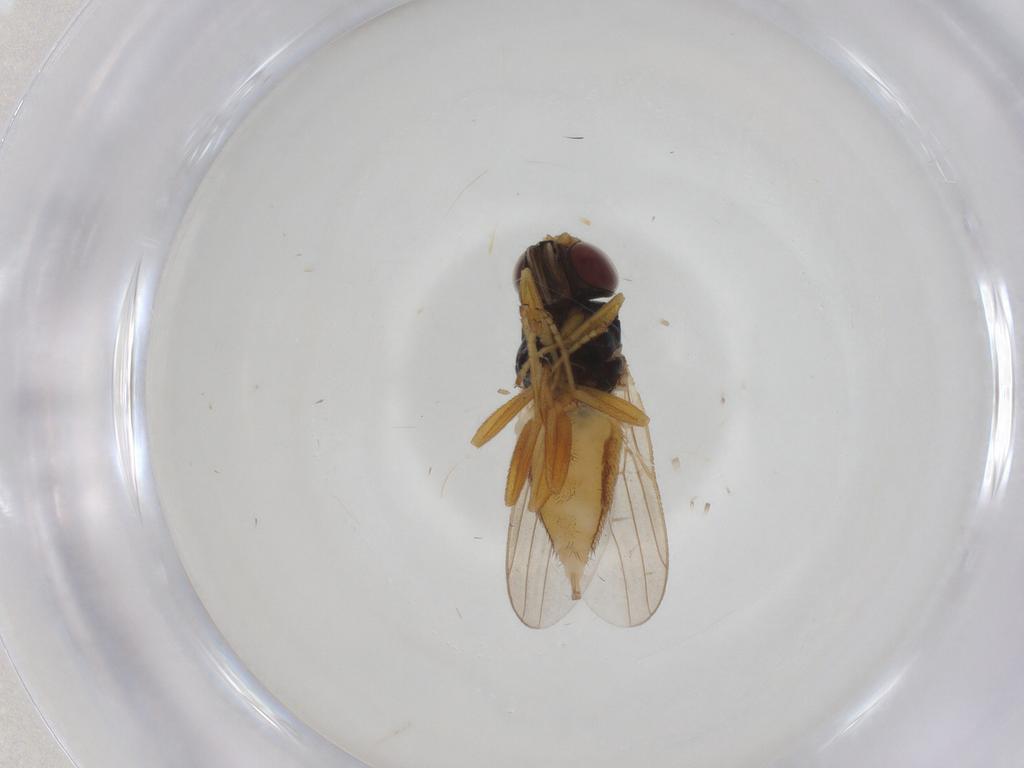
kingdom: Animalia
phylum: Arthropoda
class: Insecta
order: Diptera
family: Chloropidae
